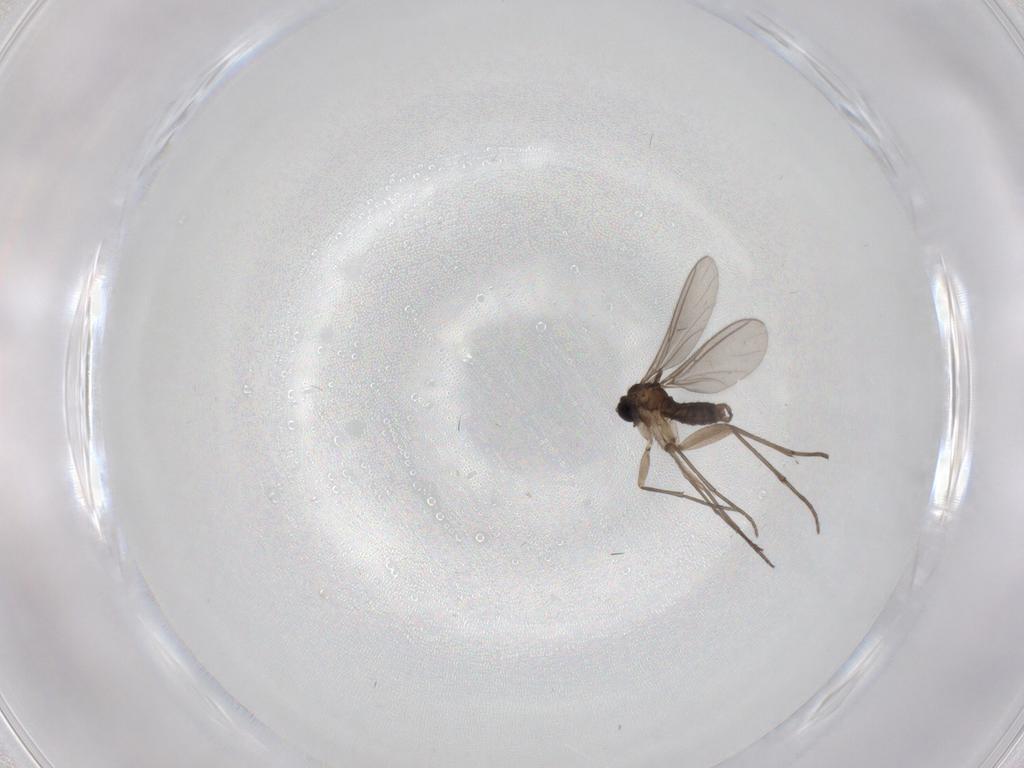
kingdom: Animalia
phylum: Arthropoda
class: Insecta
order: Diptera
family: Sciaridae
